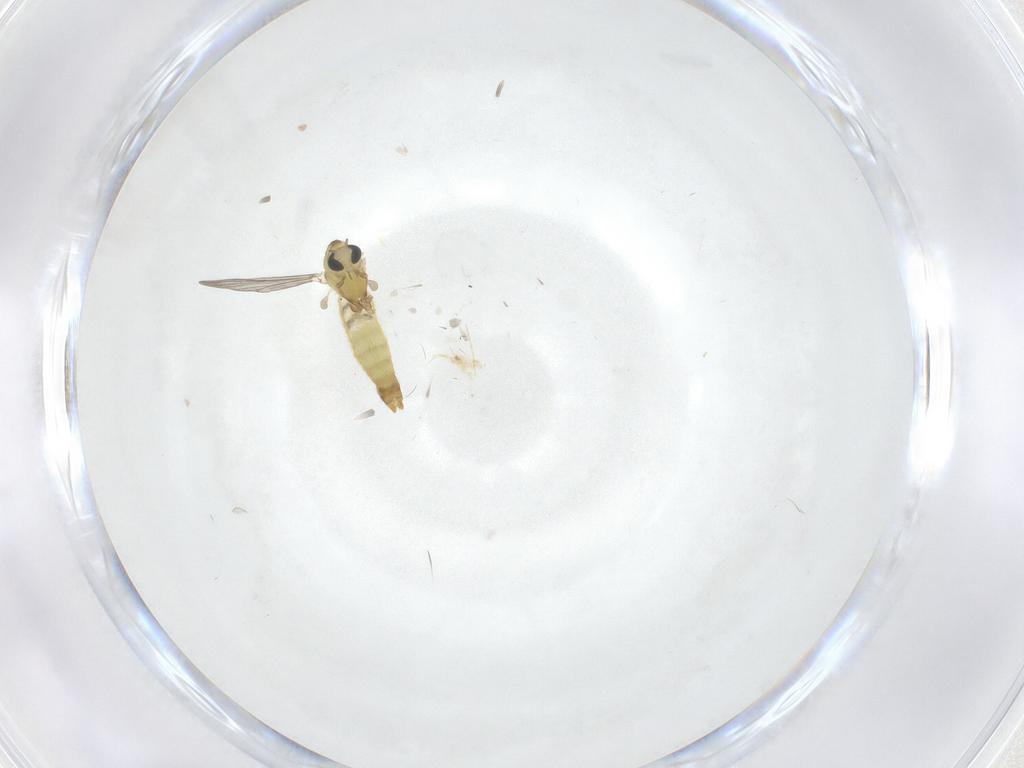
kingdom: Animalia
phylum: Arthropoda
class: Insecta
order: Diptera
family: Chironomidae
